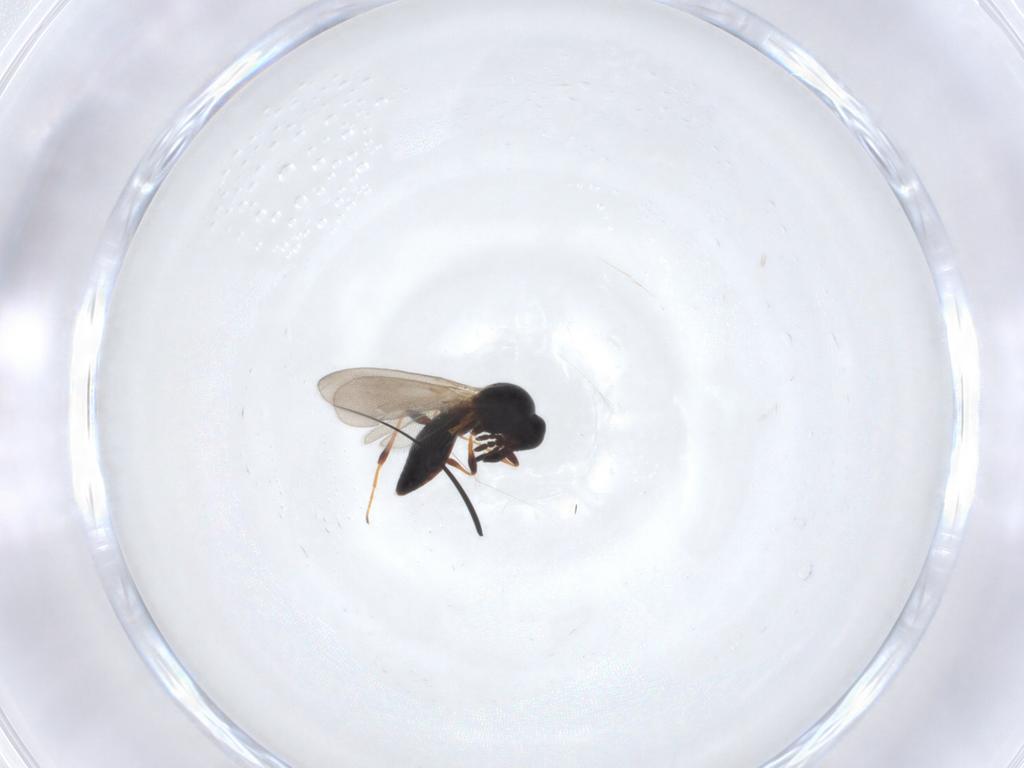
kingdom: Animalia
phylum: Arthropoda
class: Insecta
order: Hymenoptera
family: Platygastridae
